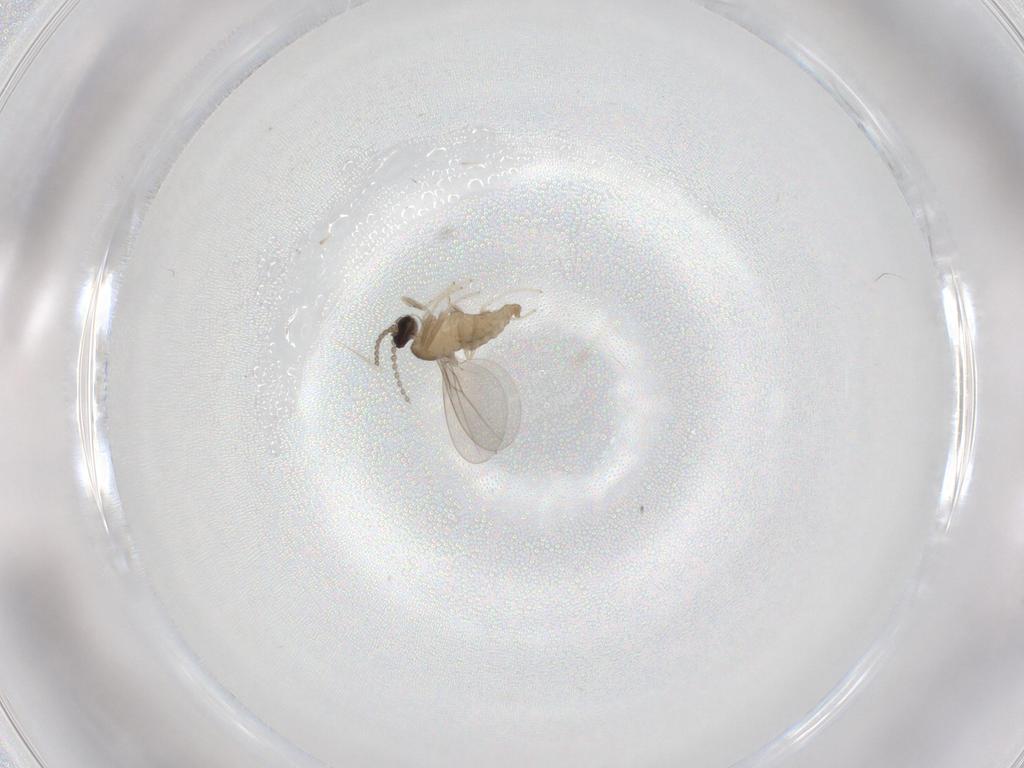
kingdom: Animalia
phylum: Arthropoda
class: Insecta
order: Diptera
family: Cecidomyiidae
